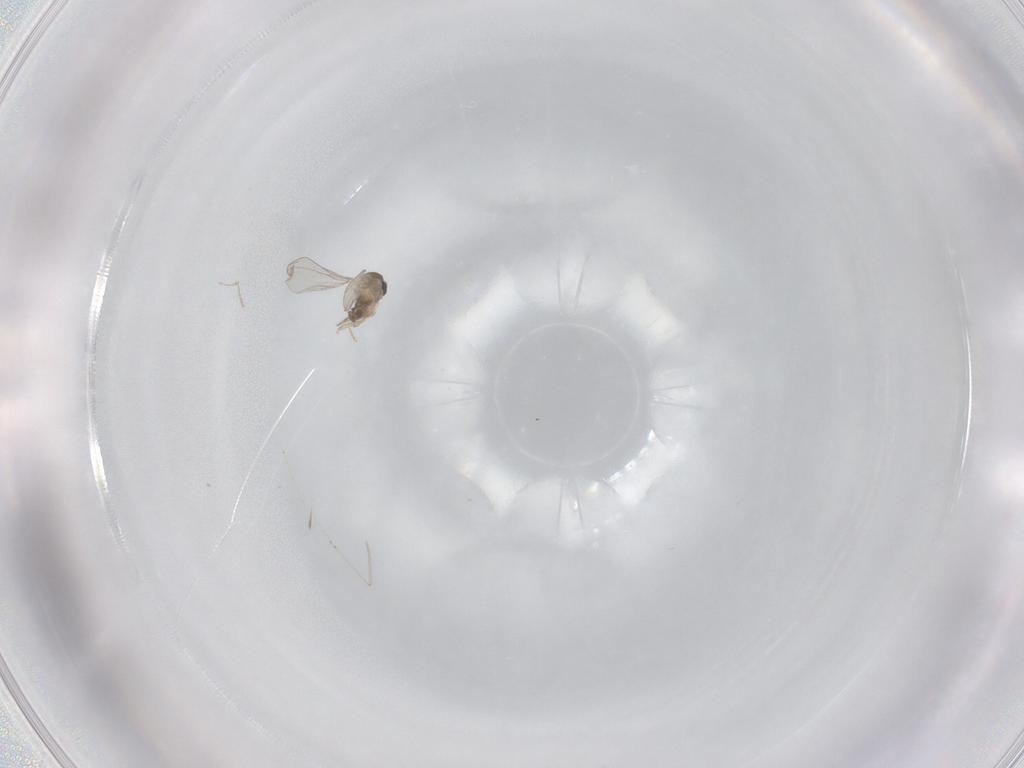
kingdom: Animalia
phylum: Arthropoda
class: Insecta
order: Diptera
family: Cecidomyiidae
